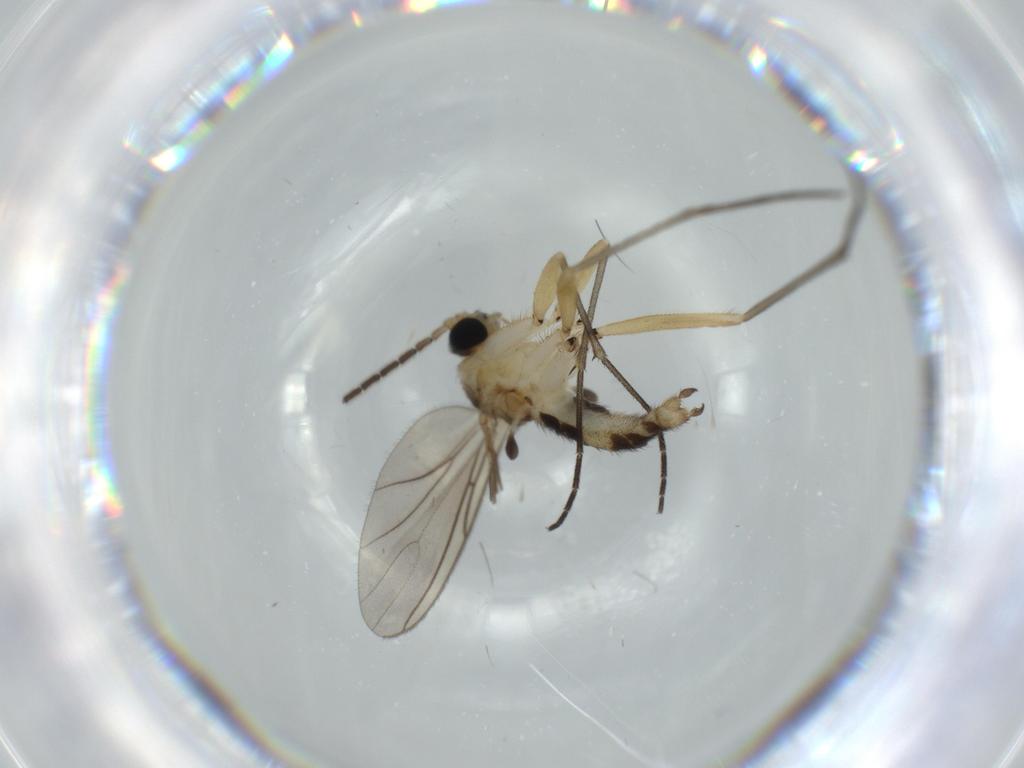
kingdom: Animalia
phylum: Arthropoda
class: Insecta
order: Diptera
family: Sciaridae
